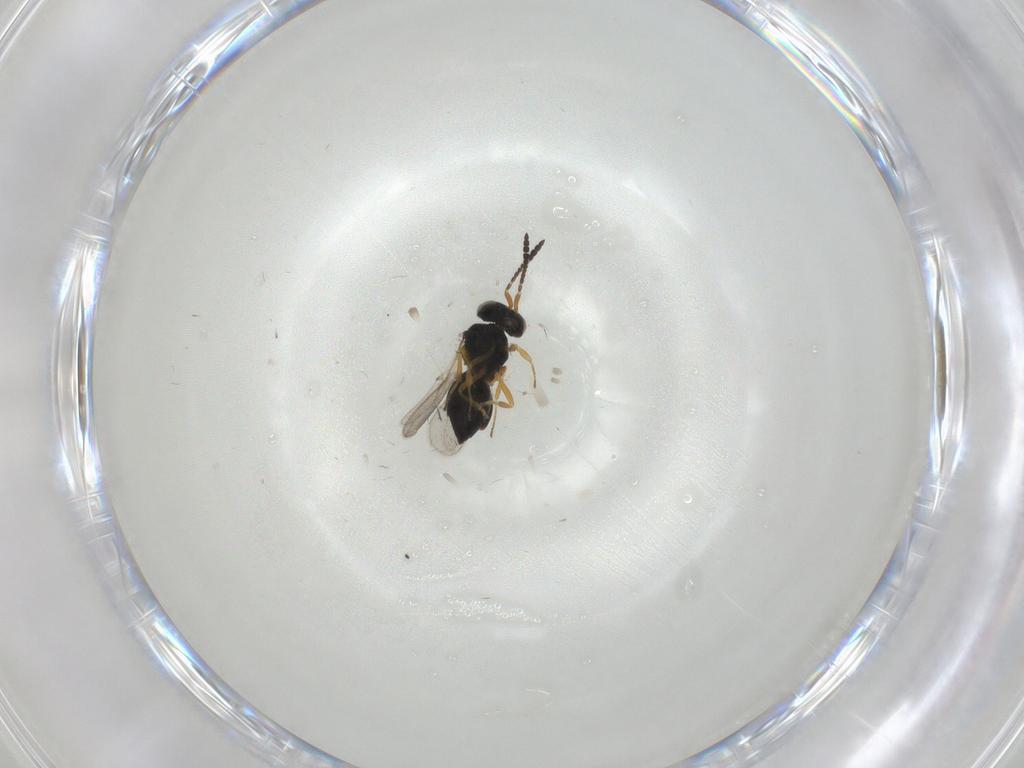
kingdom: Animalia
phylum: Arthropoda
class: Insecta
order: Hymenoptera
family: Scelionidae
